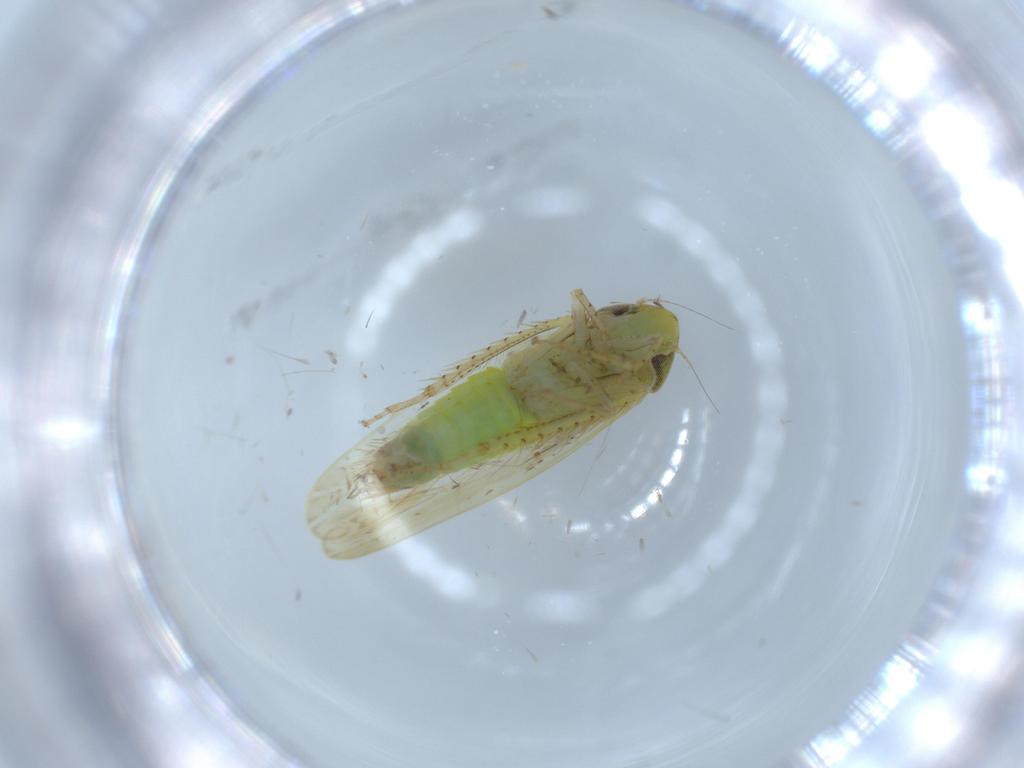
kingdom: Animalia
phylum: Arthropoda
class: Insecta
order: Hemiptera
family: Cicadellidae
